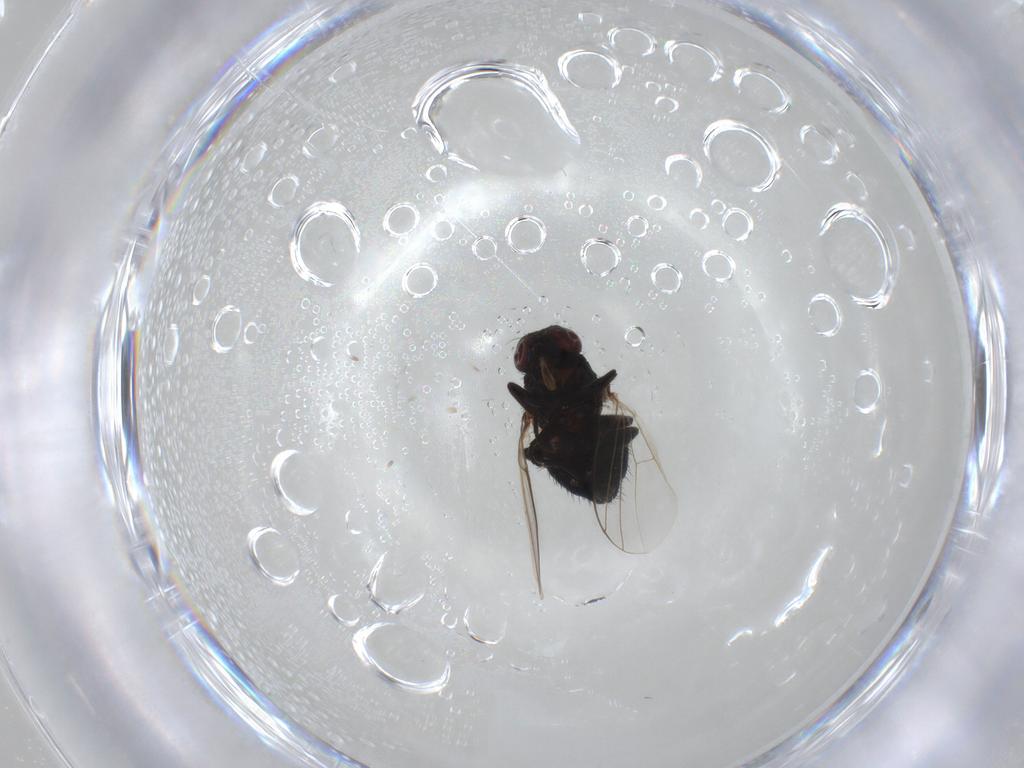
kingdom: Animalia
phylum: Arthropoda
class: Insecta
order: Diptera
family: Agromyzidae
